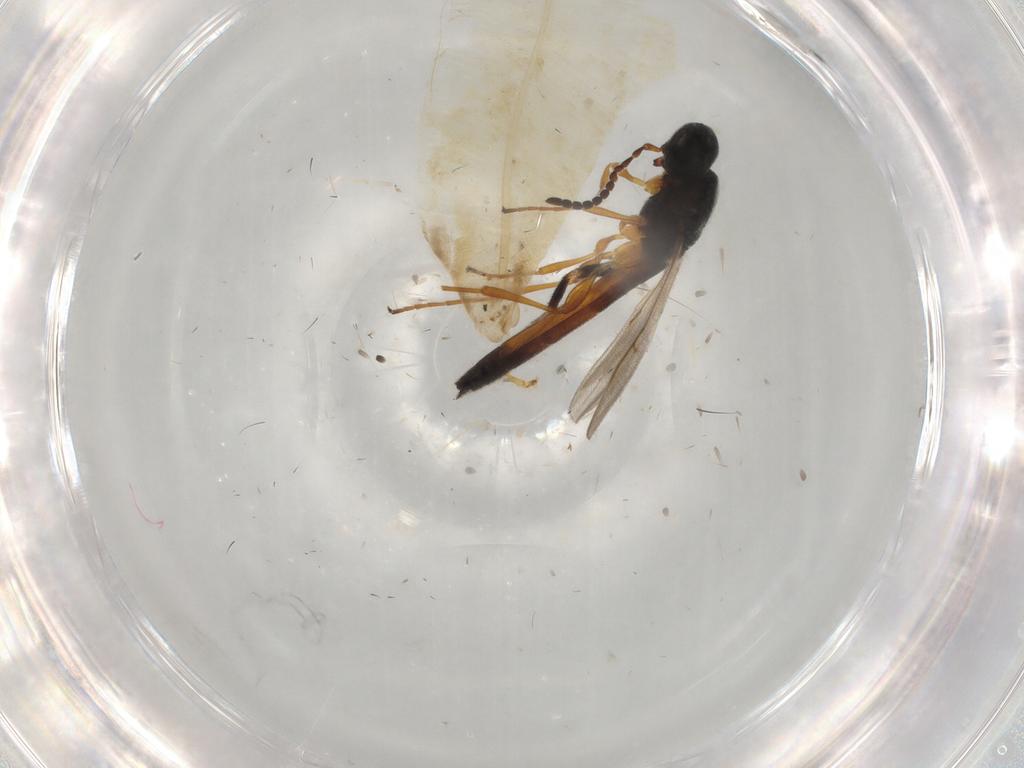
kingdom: Animalia
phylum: Arthropoda
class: Insecta
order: Hymenoptera
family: Scelionidae
